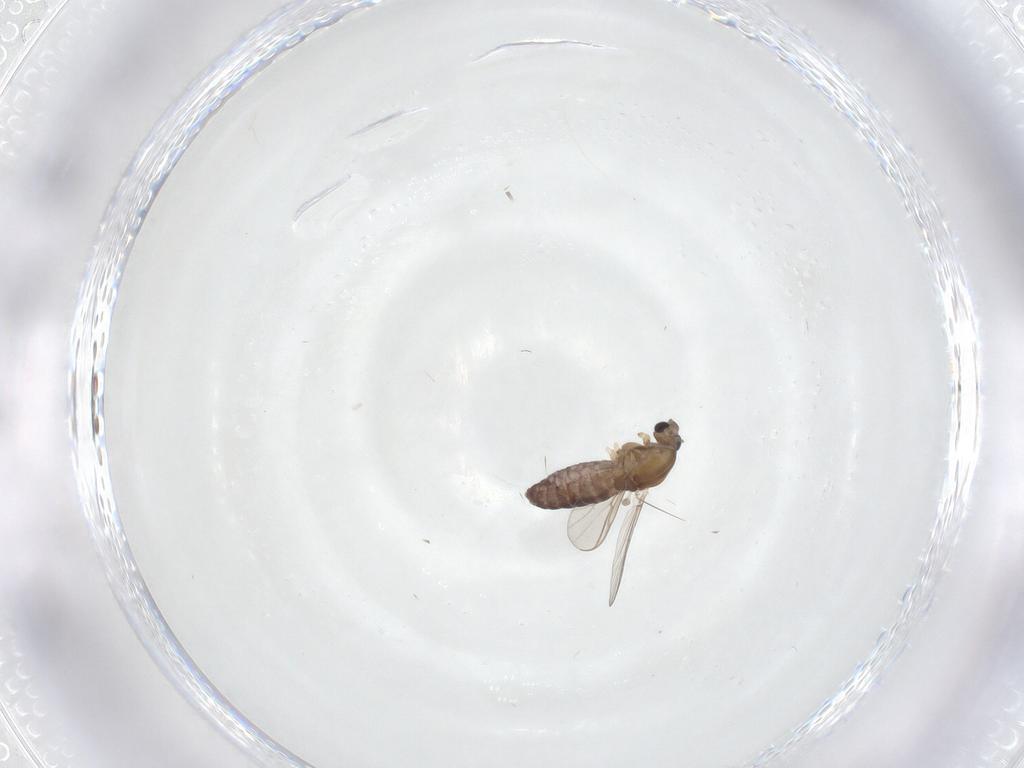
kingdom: Animalia
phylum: Arthropoda
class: Insecta
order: Diptera
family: Chironomidae
